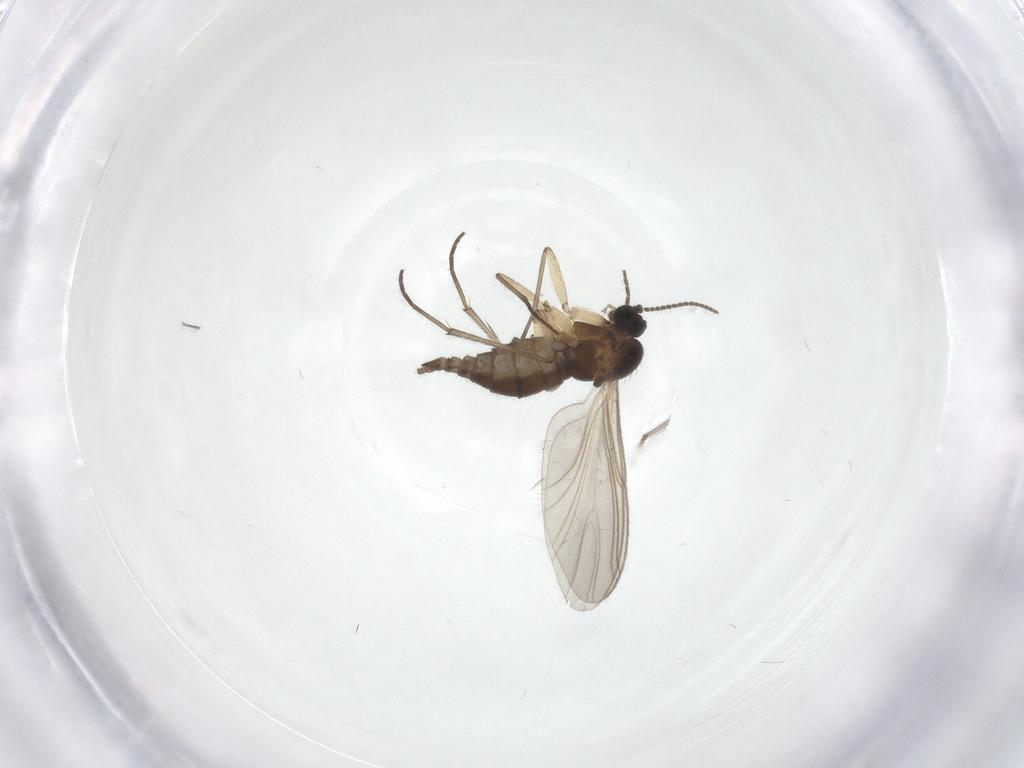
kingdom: Animalia
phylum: Arthropoda
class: Insecta
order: Diptera
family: Sciaridae
